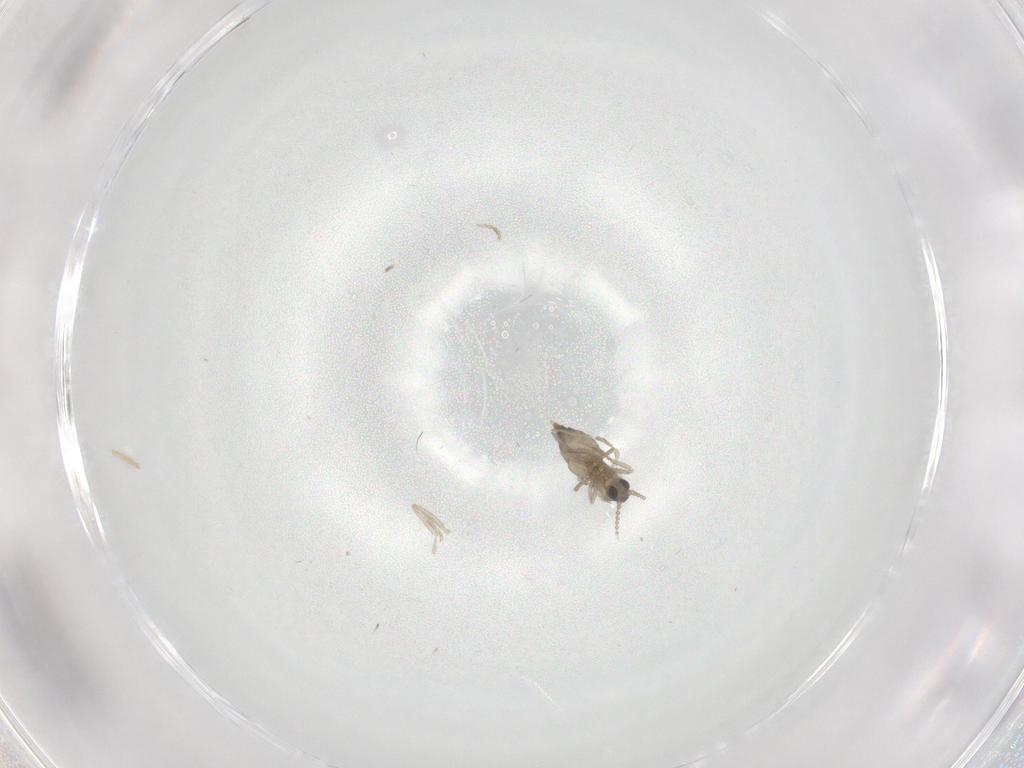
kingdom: Animalia
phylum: Arthropoda
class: Insecta
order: Diptera
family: Cecidomyiidae
